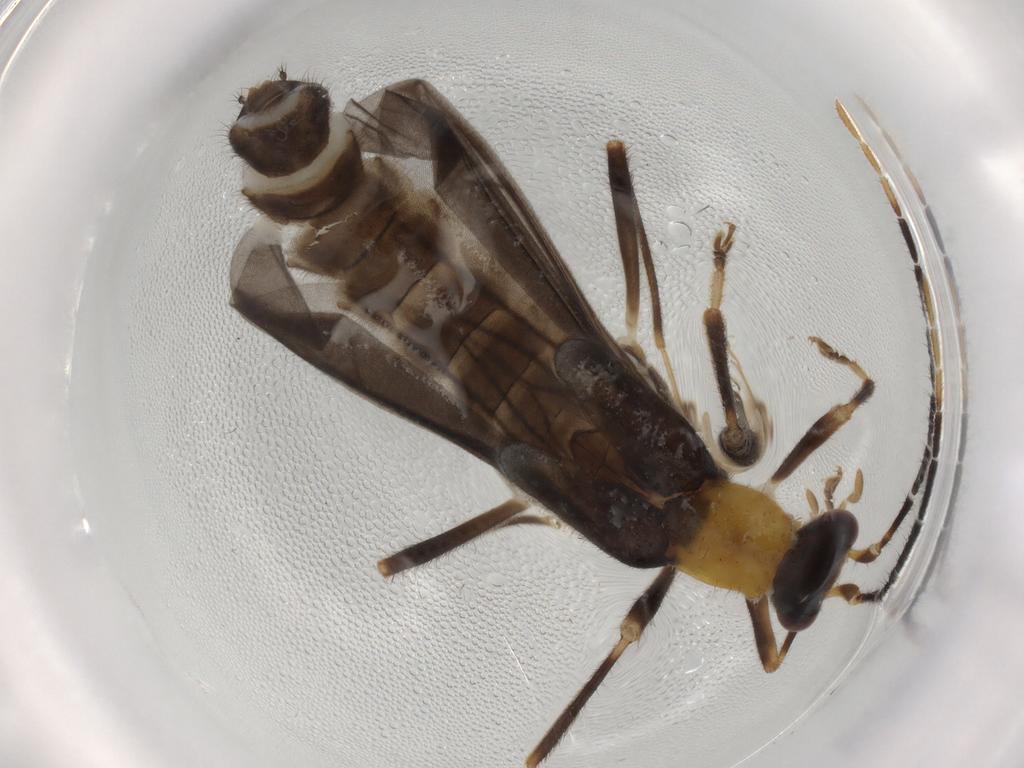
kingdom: Animalia
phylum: Arthropoda
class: Insecta
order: Coleoptera
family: Cantharidae
